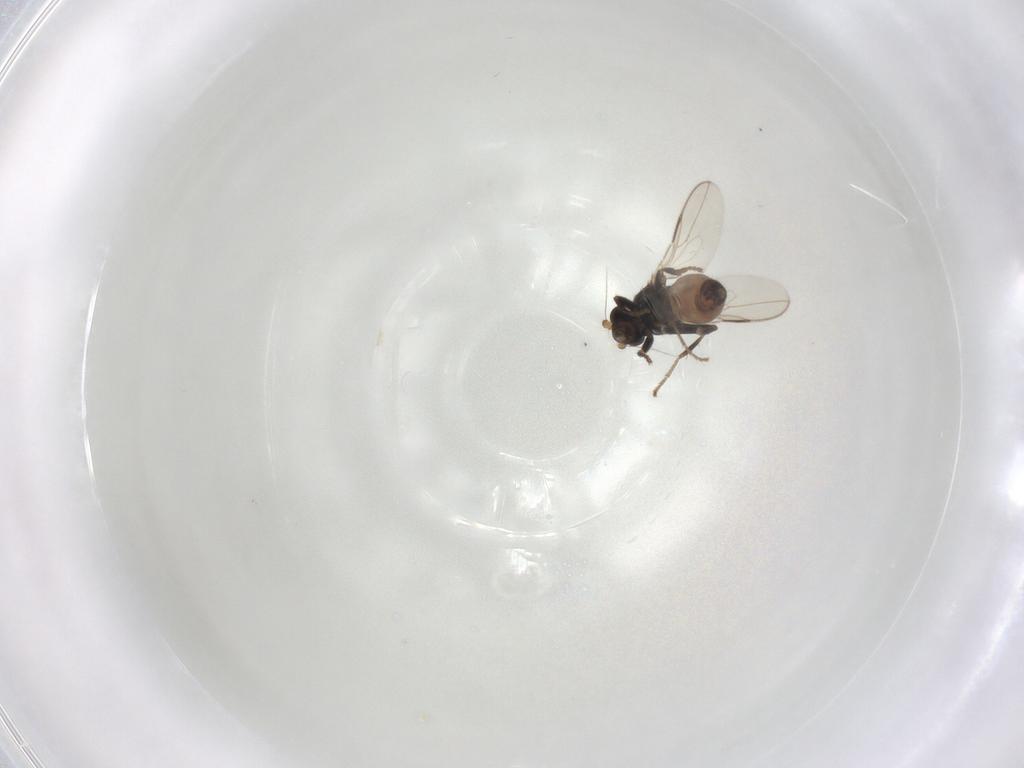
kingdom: Animalia
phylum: Arthropoda
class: Insecta
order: Diptera
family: Sphaeroceridae
